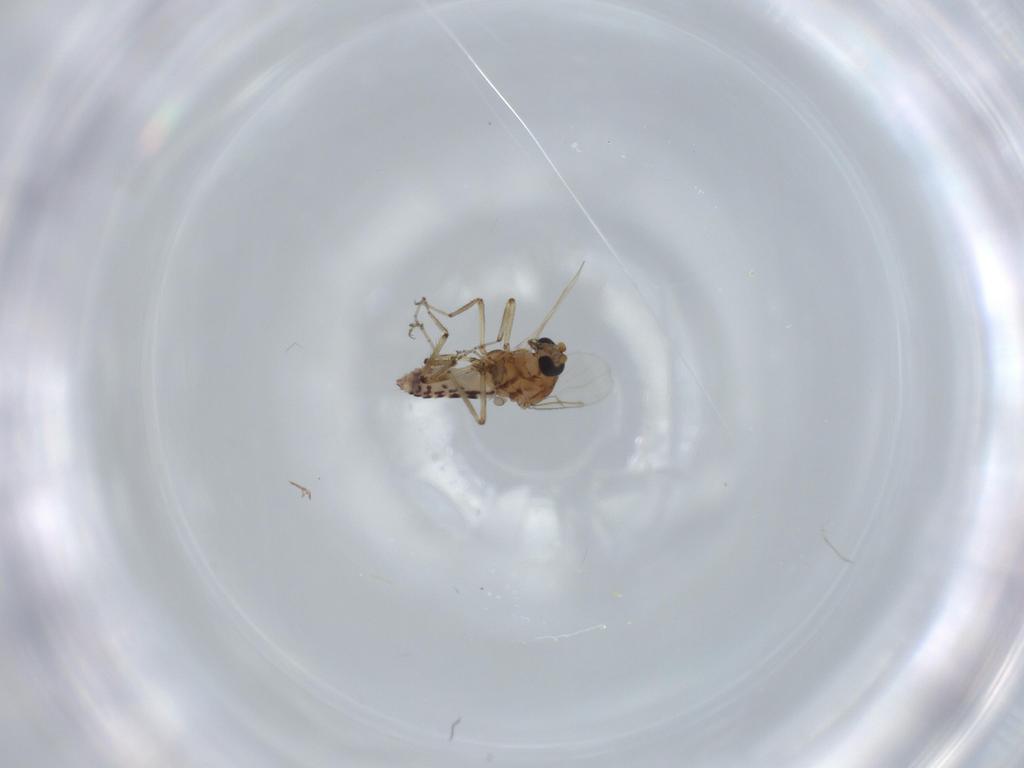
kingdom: Animalia
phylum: Arthropoda
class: Insecta
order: Diptera
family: Ceratopogonidae
